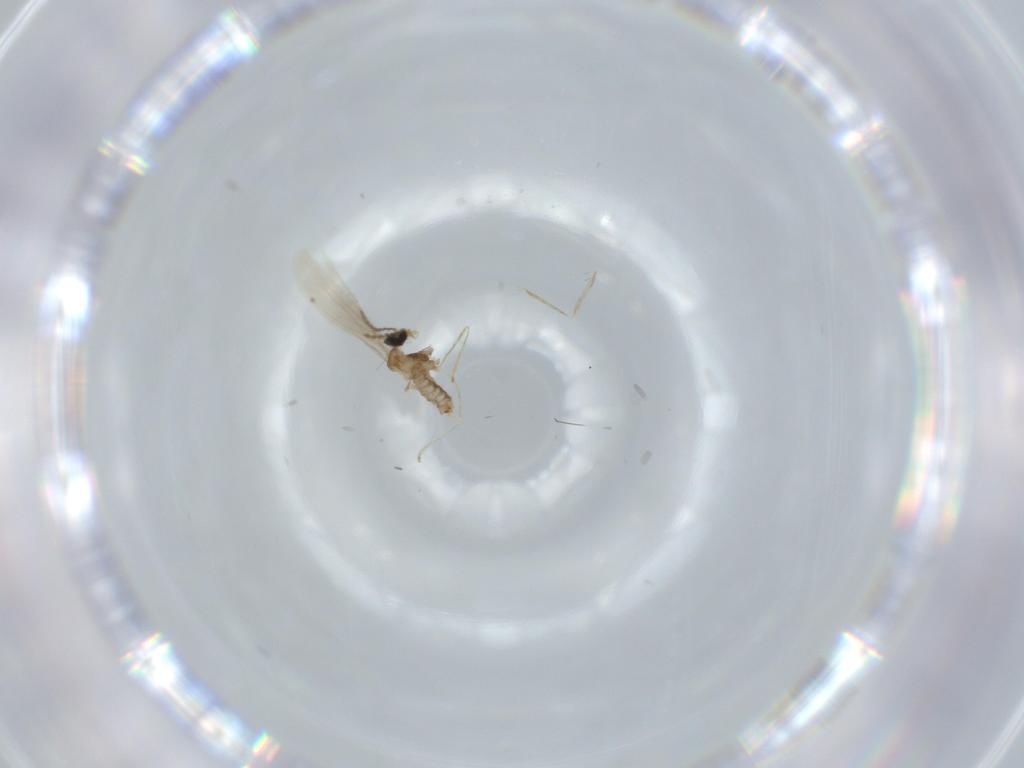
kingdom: Animalia
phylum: Arthropoda
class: Insecta
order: Diptera
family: Cecidomyiidae
